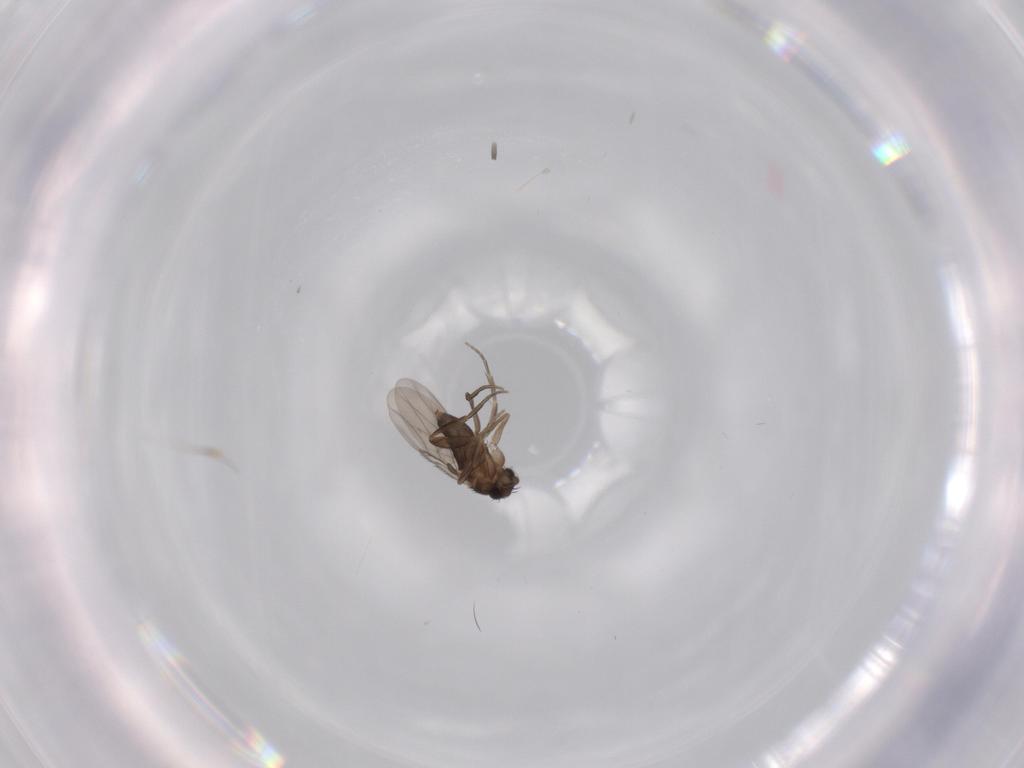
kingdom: Animalia
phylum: Arthropoda
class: Insecta
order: Diptera
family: Phoridae
